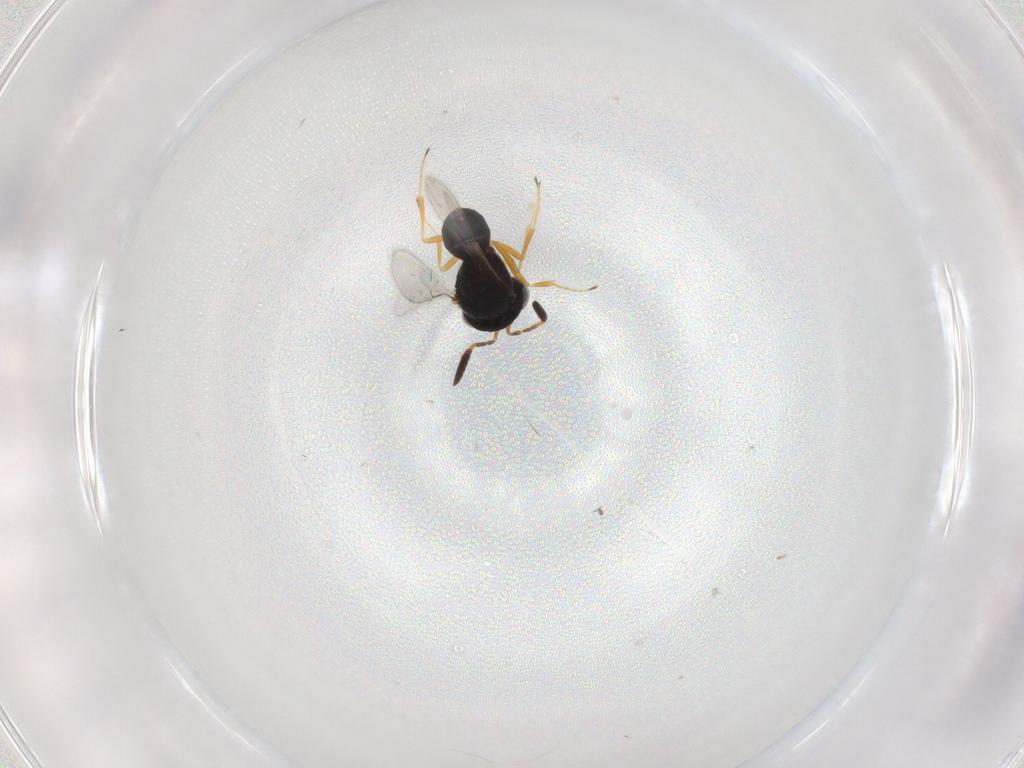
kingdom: Animalia
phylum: Arthropoda
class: Insecta
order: Hymenoptera
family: Scelionidae
